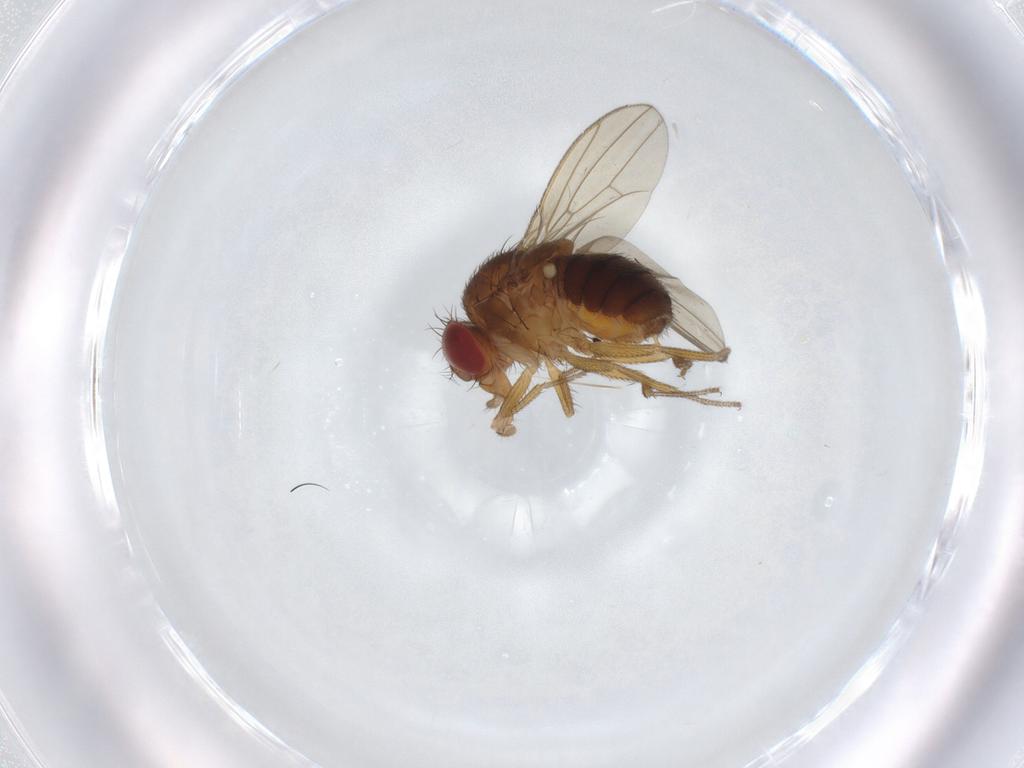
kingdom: Animalia
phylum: Arthropoda
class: Insecta
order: Diptera
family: Drosophilidae
